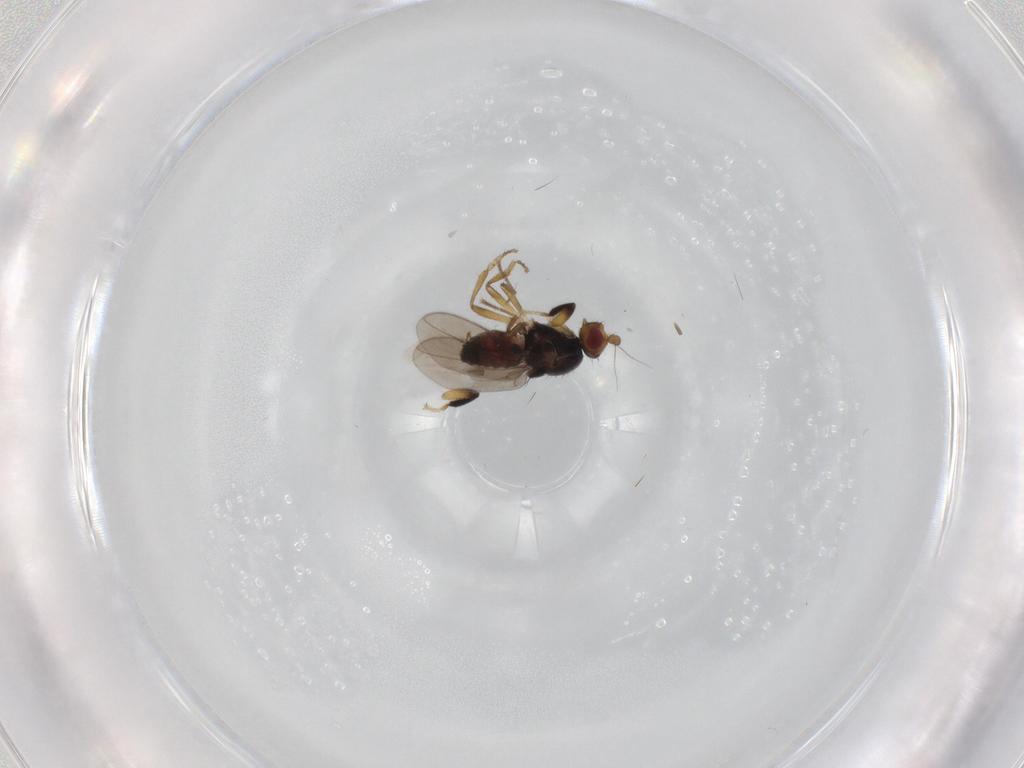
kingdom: Animalia
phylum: Arthropoda
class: Insecta
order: Diptera
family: Sphaeroceridae
